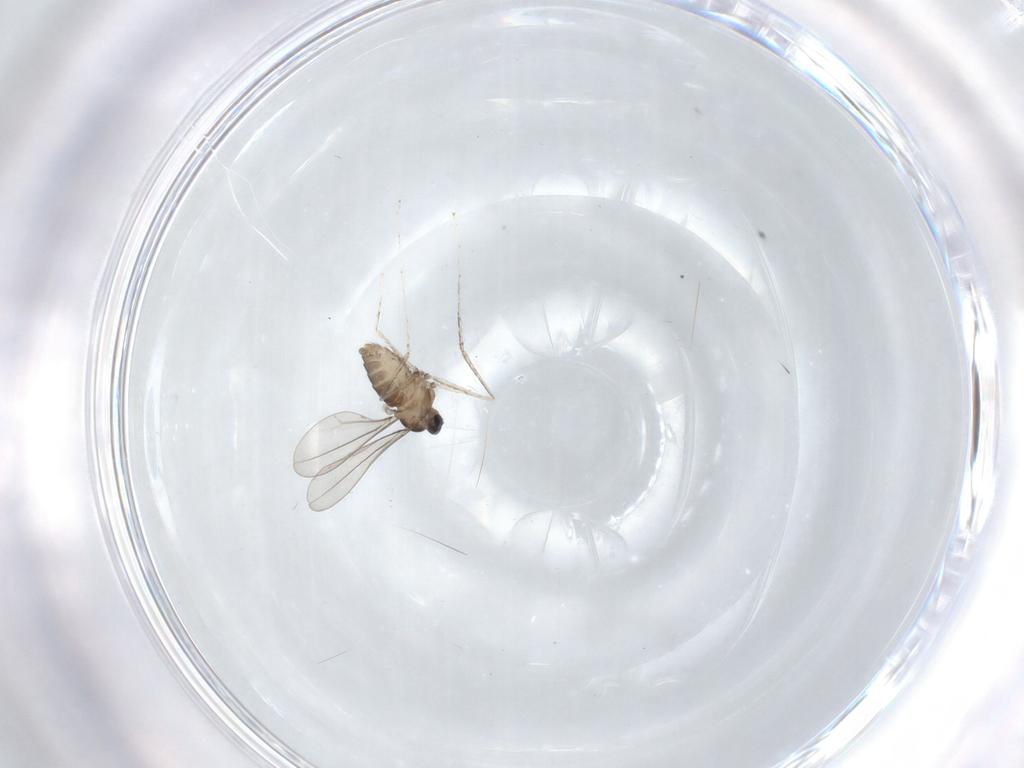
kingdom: Animalia
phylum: Arthropoda
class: Insecta
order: Diptera
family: Cecidomyiidae
